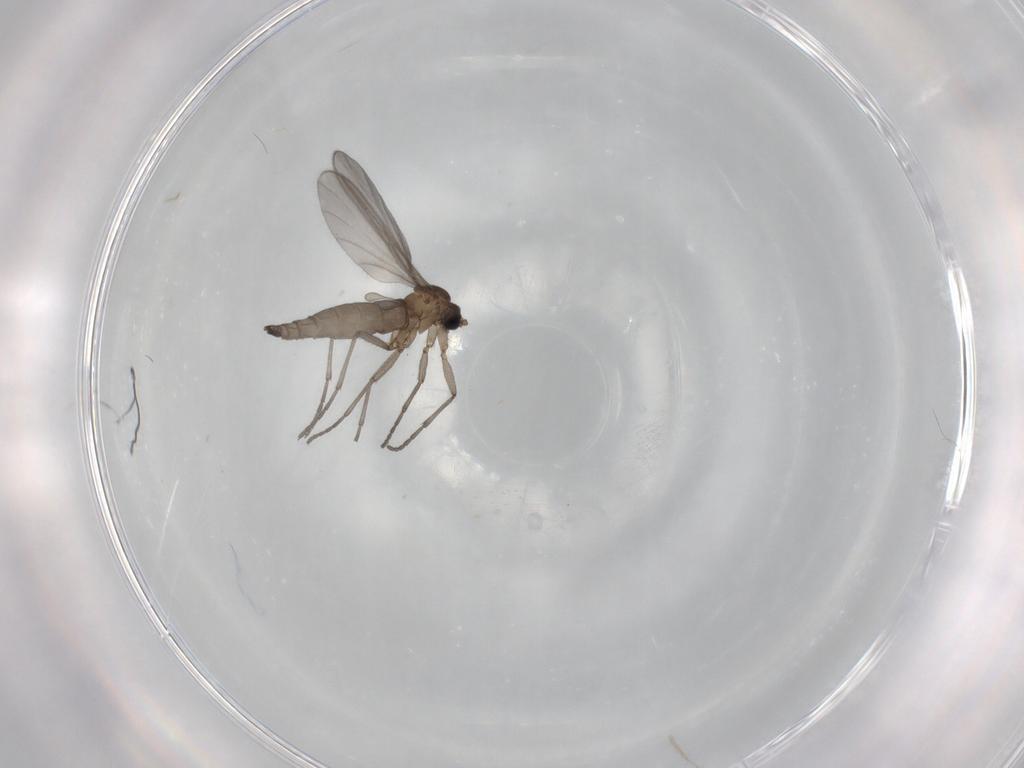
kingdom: Animalia
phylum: Arthropoda
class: Insecta
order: Diptera
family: Sciaridae
